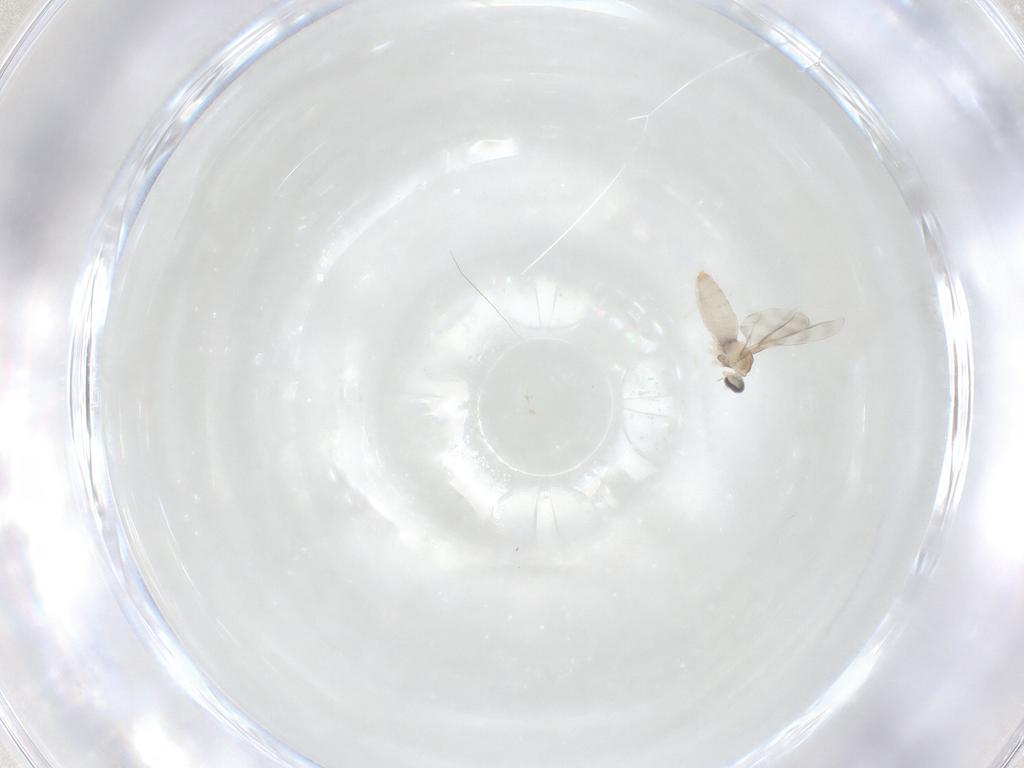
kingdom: Animalia
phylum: Arthropoda
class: Insecta
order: Diptera
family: Cecidomyiidae
